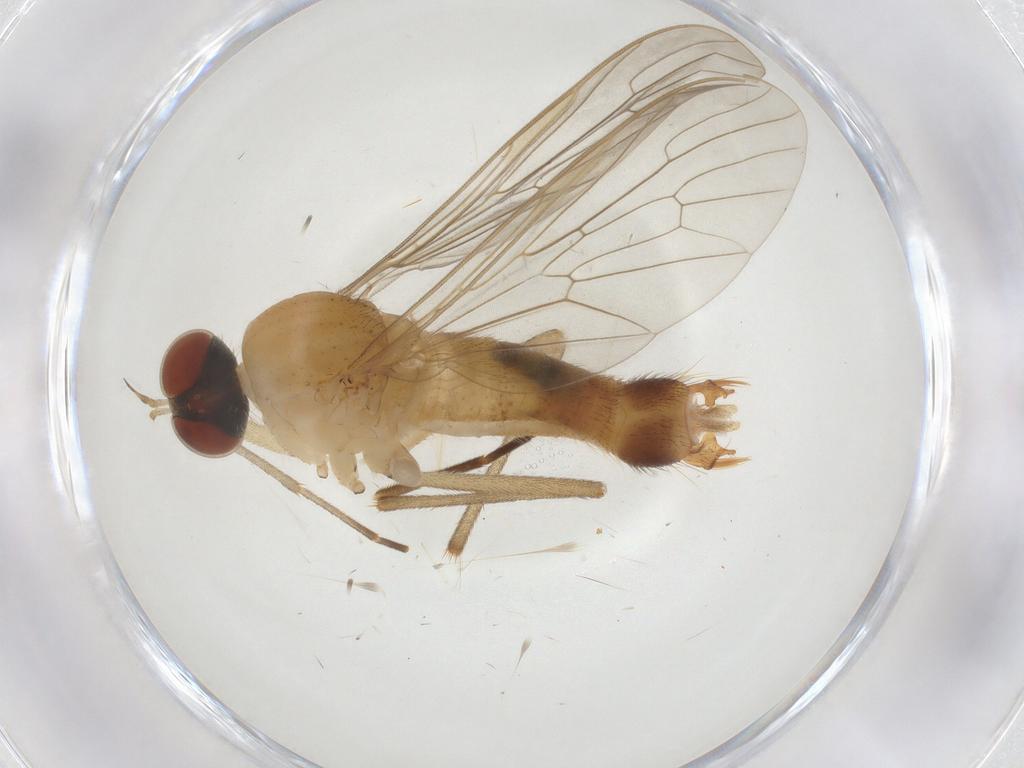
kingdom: Animalia
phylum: Arthropoda
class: Insecta
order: Diptera
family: Apsilocephalidae
